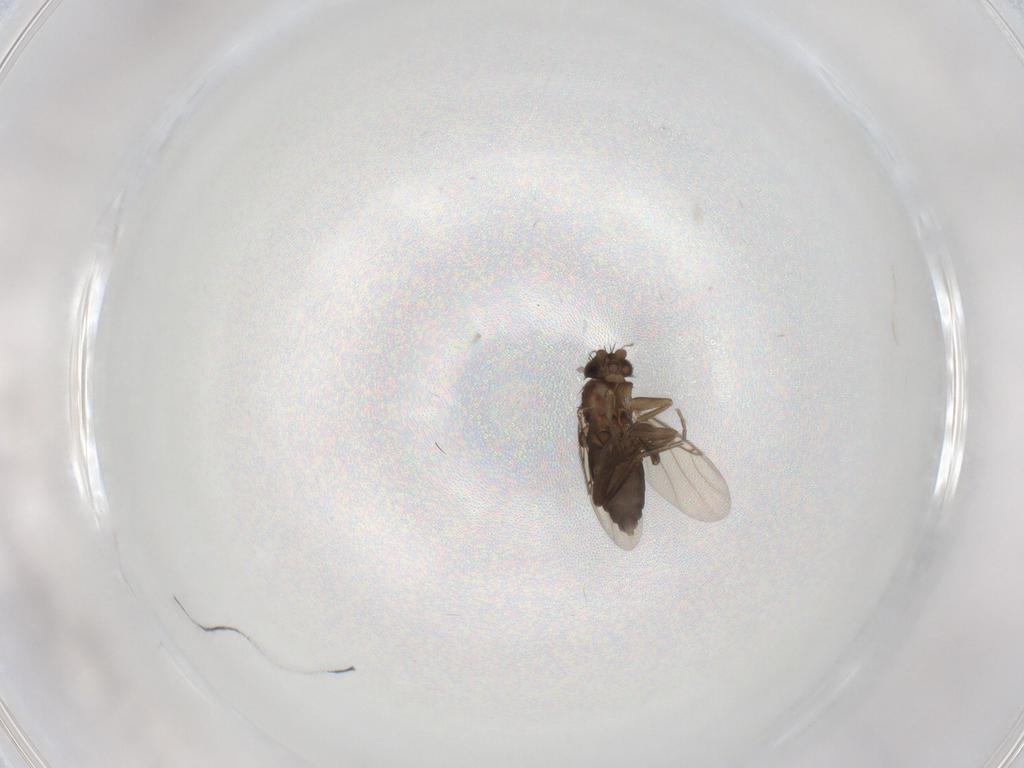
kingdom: Animalia
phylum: Arthropoda
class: Insecta
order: Diptera
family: Phoridae
